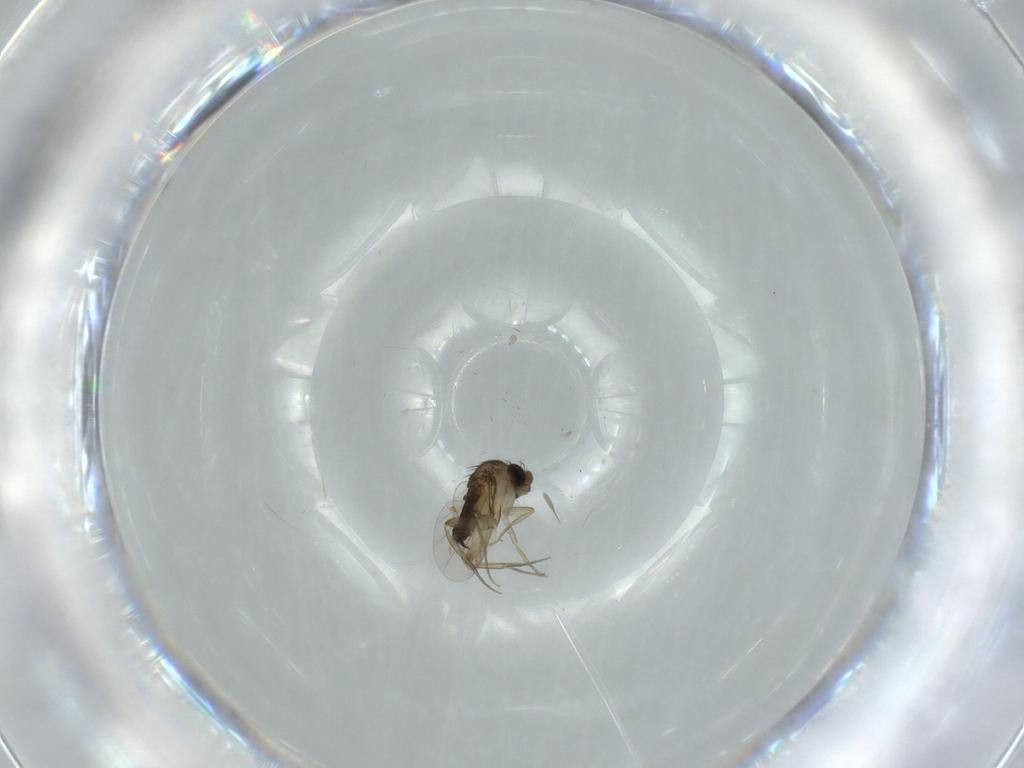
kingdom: Animalia
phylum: Arthropoda
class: Insecta
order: Diptera
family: Phoridae
